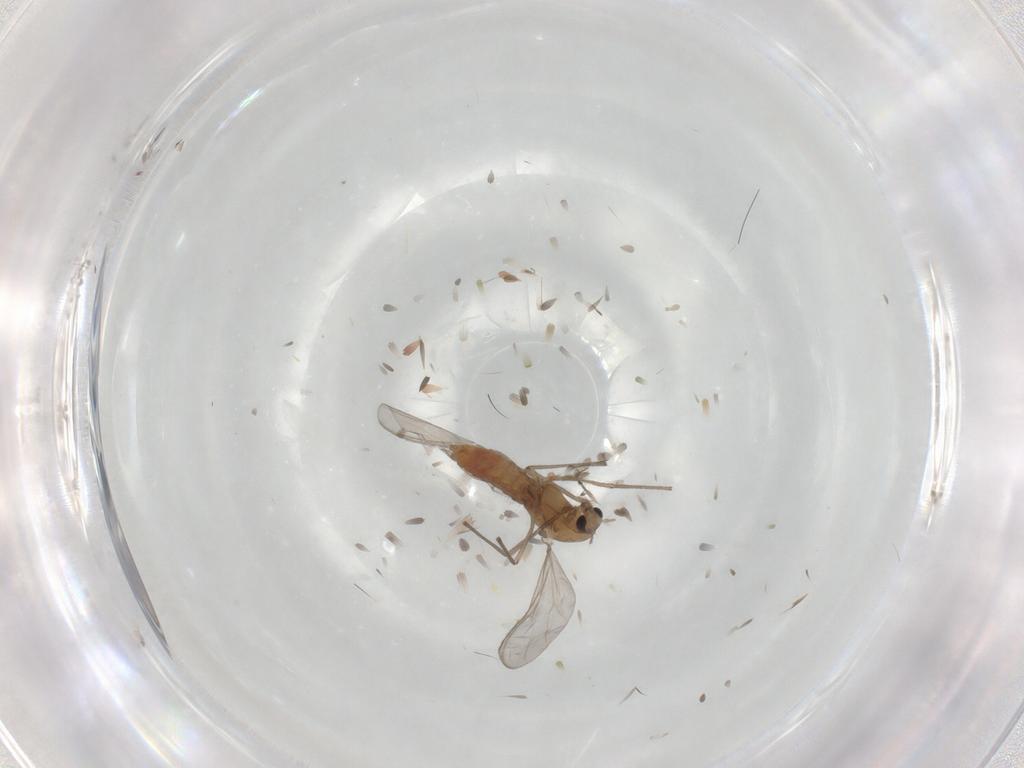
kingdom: Animalia
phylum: Arthropoda
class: Insecta
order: Diptera
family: Chironomidae
